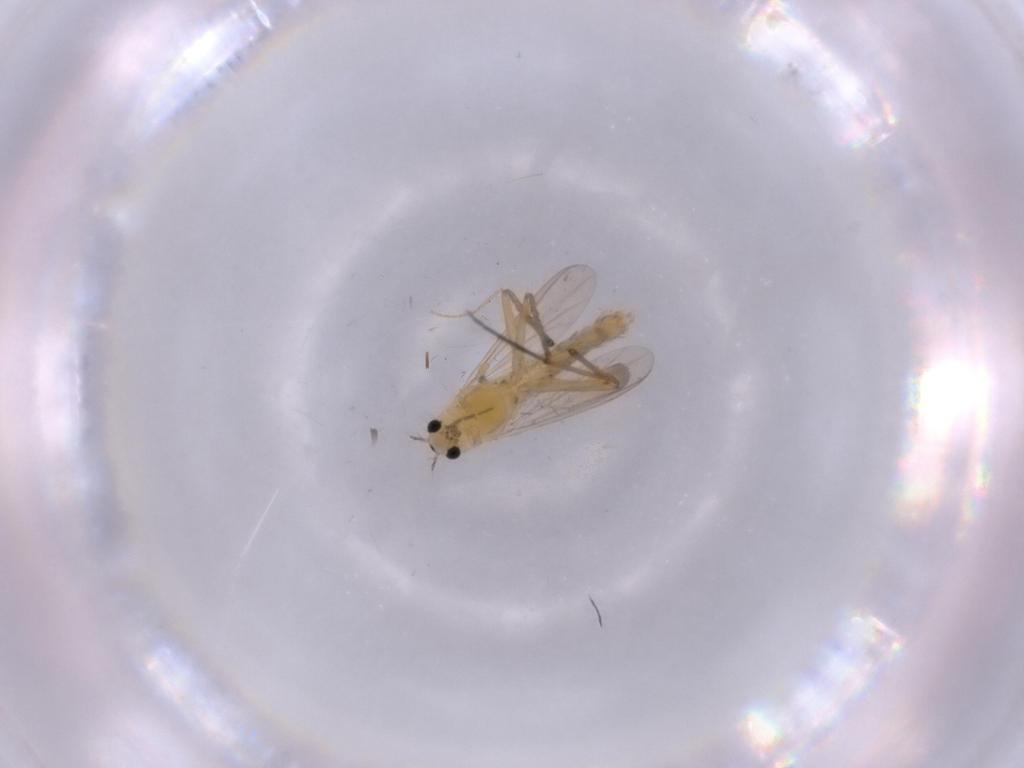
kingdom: Animalia
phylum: Arthropoda
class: Insecta
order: Diptera
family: Chironomidae
